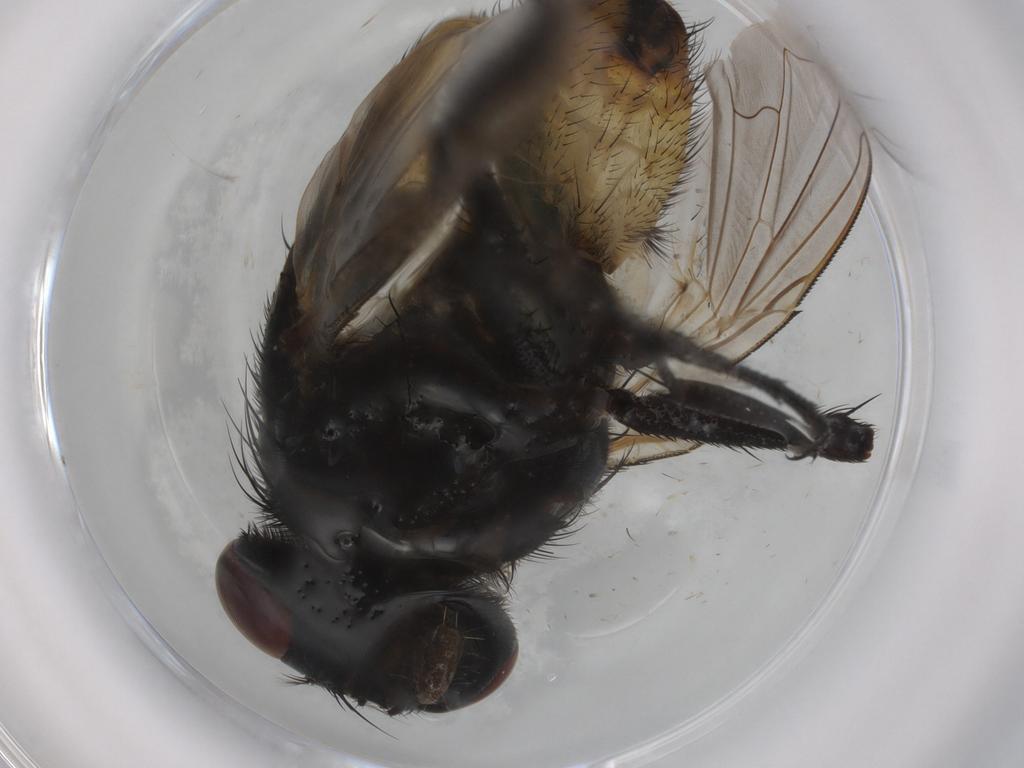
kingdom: Animalia
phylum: Arthropoda
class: Insecta
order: Diptera
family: Muscidae
